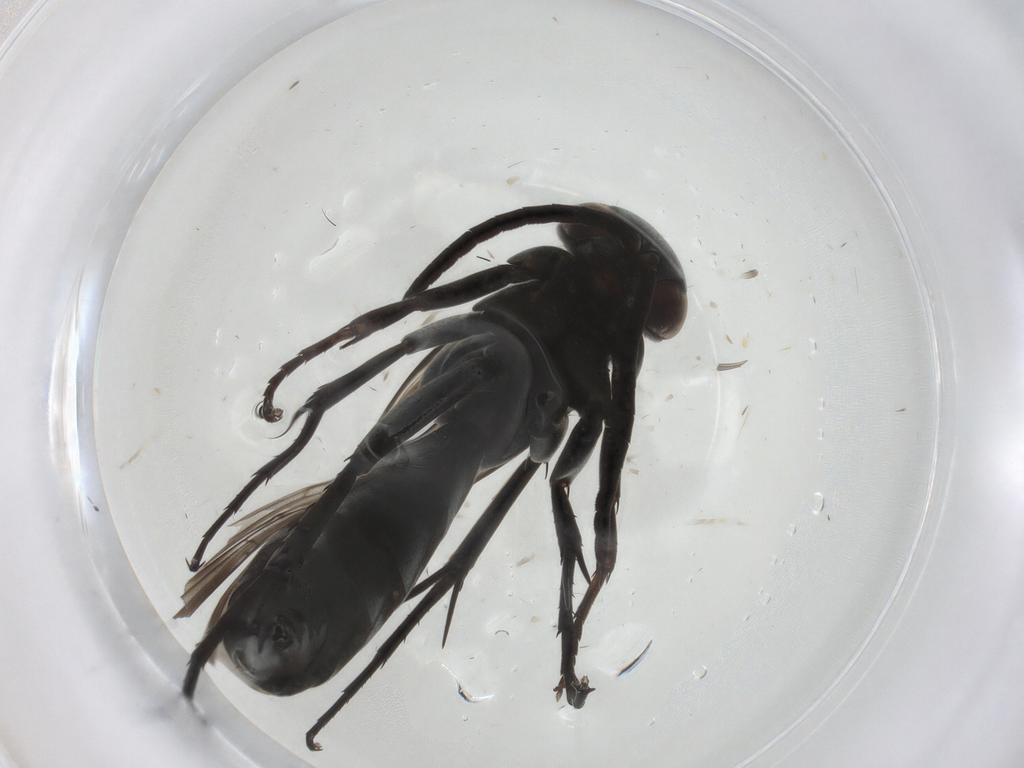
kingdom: Animalia
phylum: Arthropoda
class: Insecta
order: Hymenoptera
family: Pompilidae
